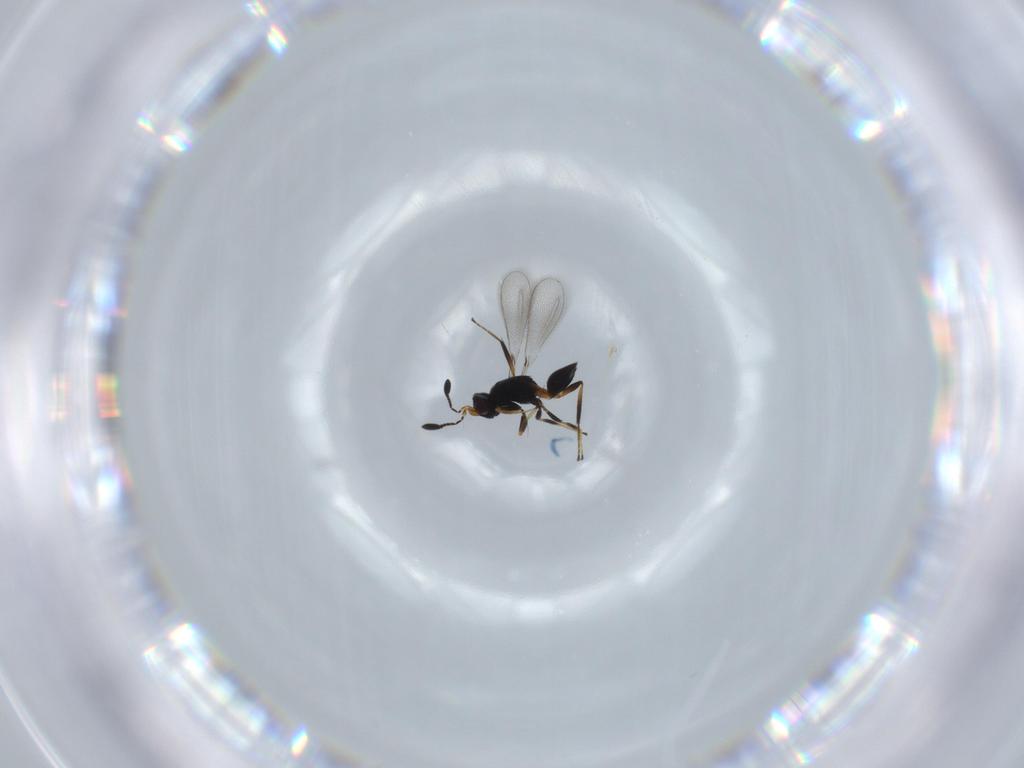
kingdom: Animalia
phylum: Arthropoda
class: Insecta
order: Hymenoptera
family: Mymaridae
